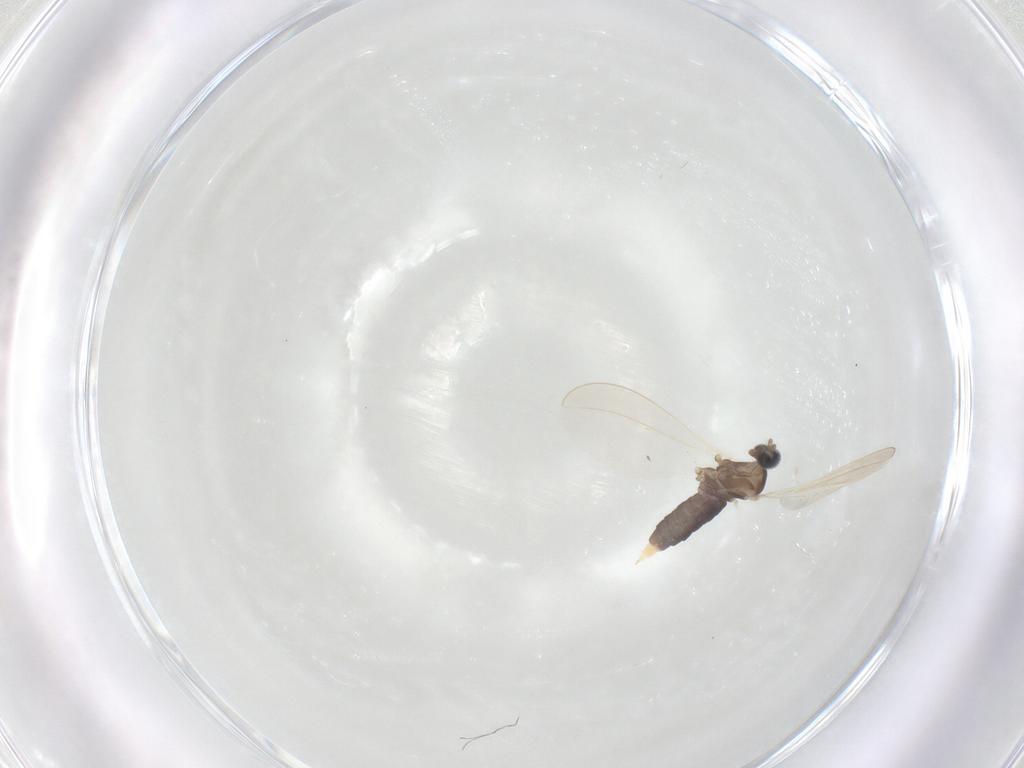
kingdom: Animalia
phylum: Arthropoda
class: Insecta
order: Diptera
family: Cecidomyiidae
